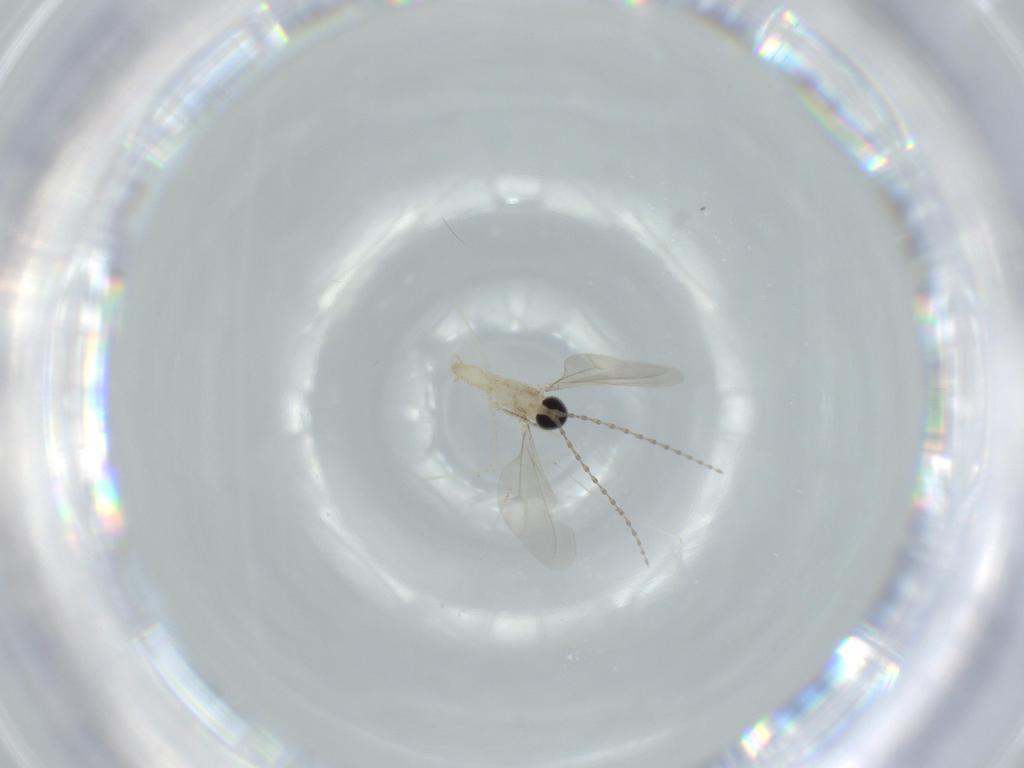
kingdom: Animalia
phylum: Arthropoda
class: Insecta
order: Diptera
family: Cecidomyiidae
